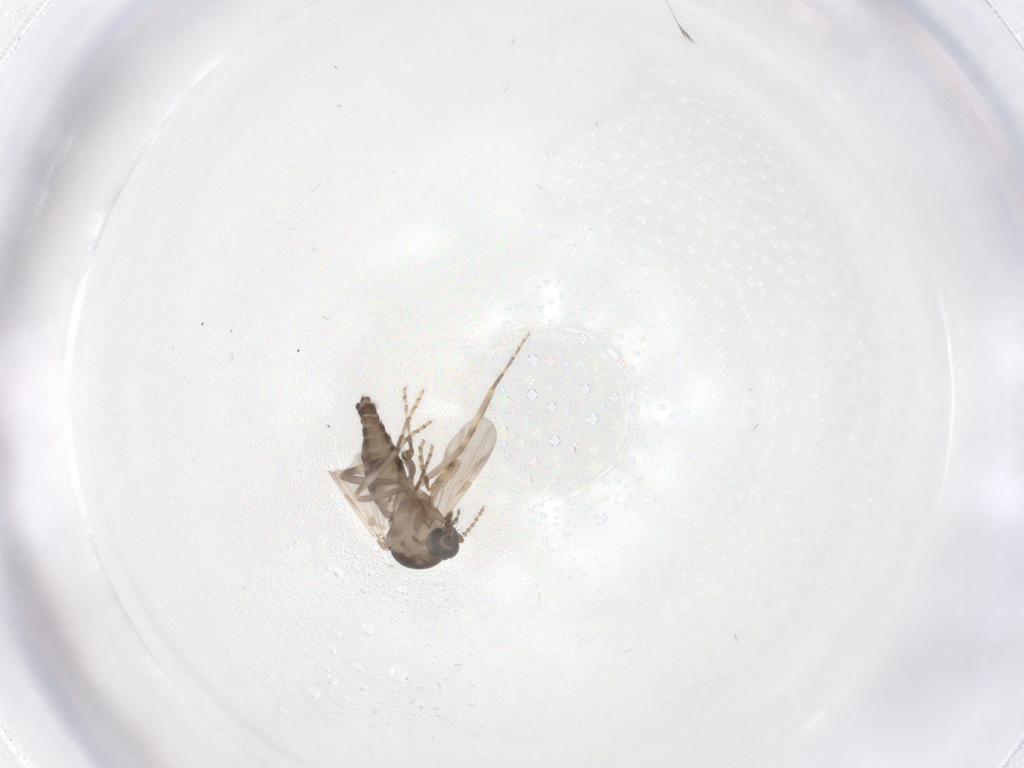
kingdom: Animalia
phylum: Arthropoda
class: Insecta
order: Diptera
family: Ceratopogonidae
